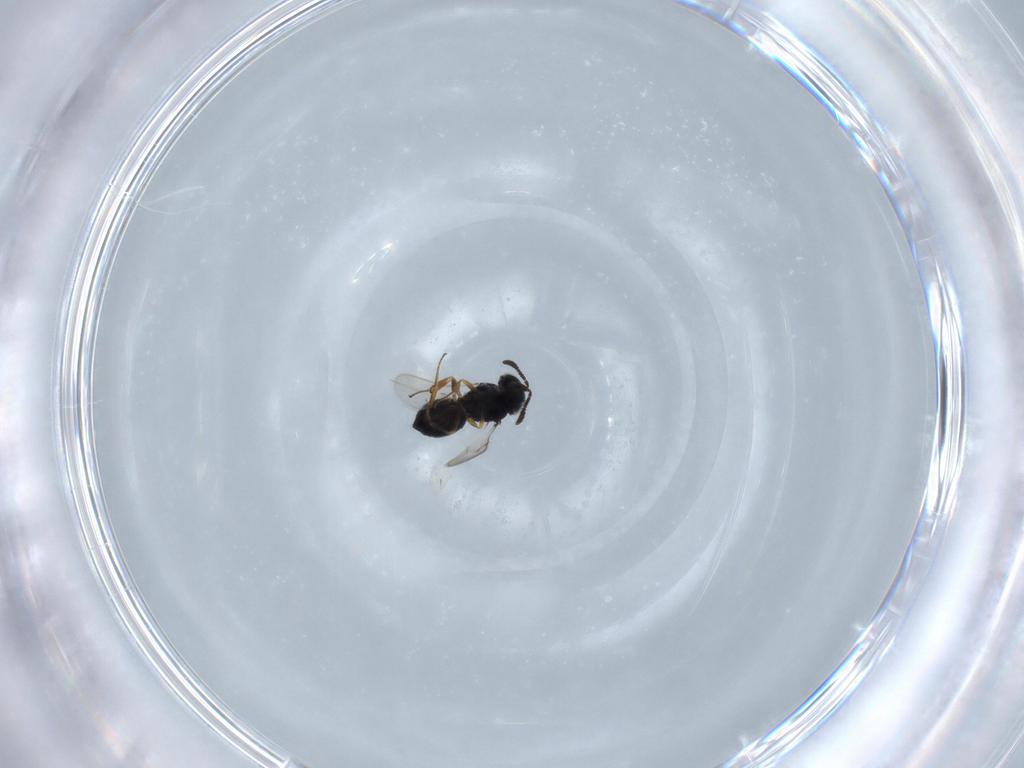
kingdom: Animalia
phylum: Arthropoda
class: Insecta
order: Hymenoptera
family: Scelionidae
